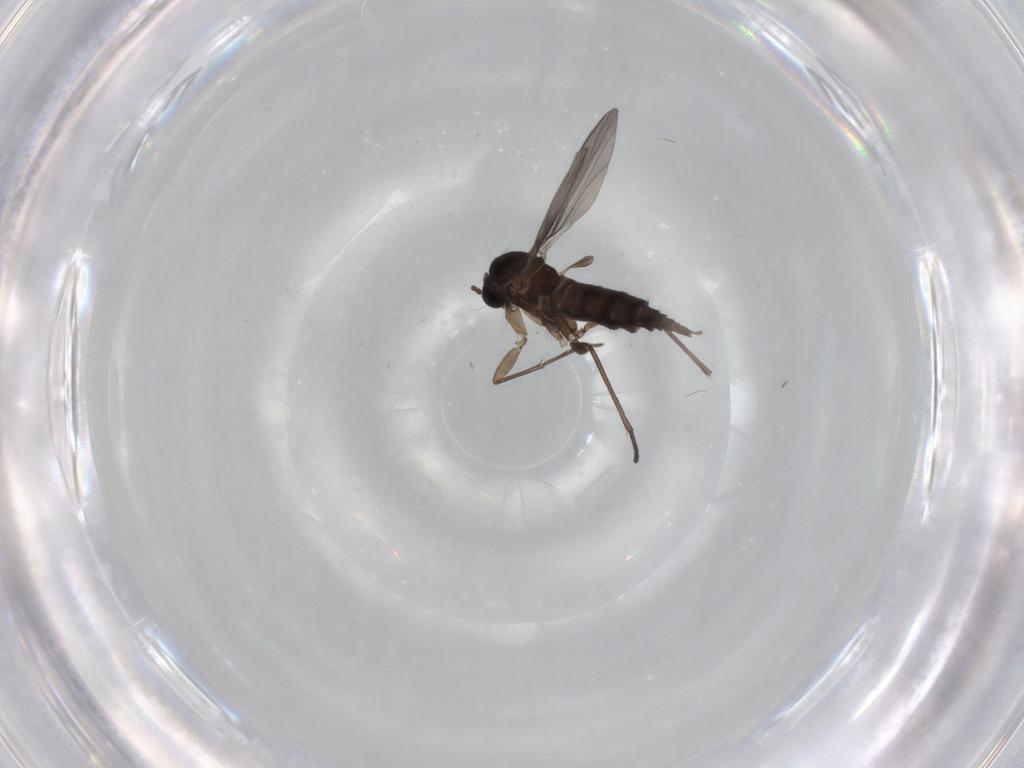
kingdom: Animalia
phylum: Arthropoda
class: Insecta
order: Diptera
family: Sciaridae
